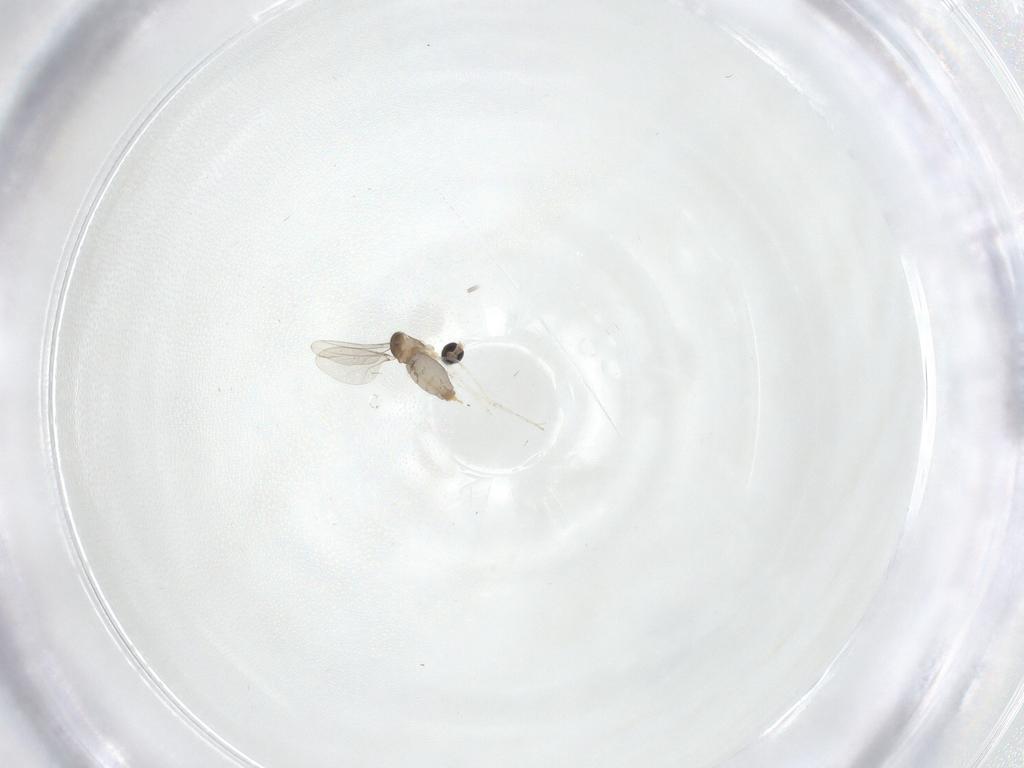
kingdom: Animalia
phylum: Arthropoda
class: Insecta
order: Diptera
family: Cecidomyiidae
